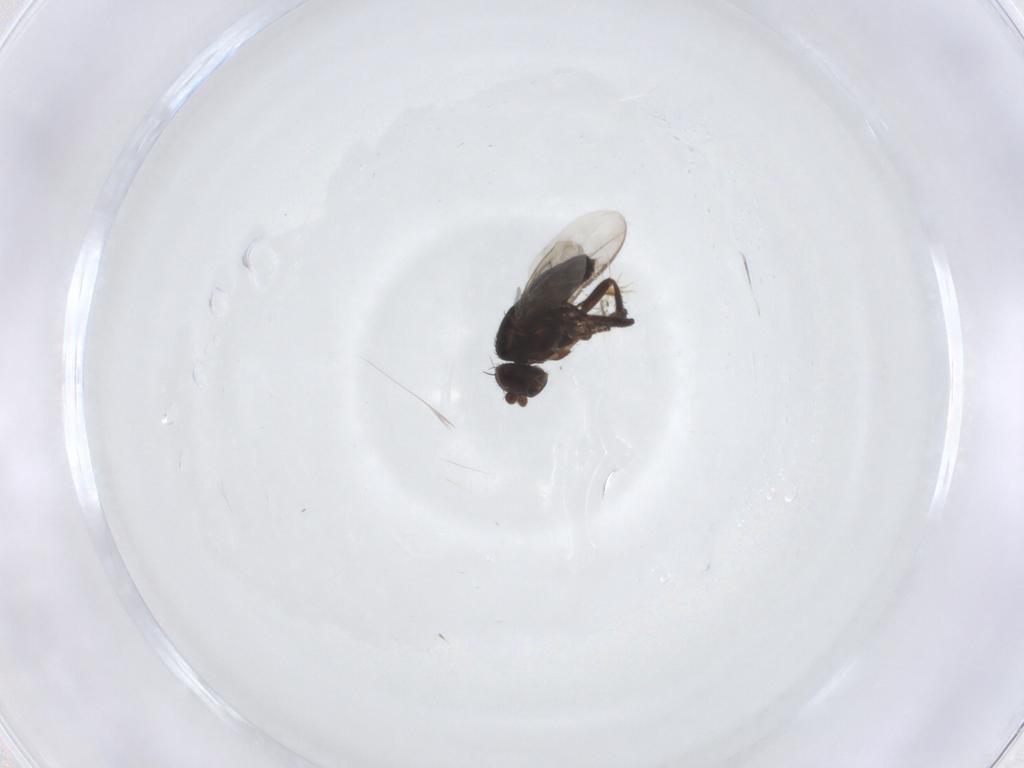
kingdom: Animalia
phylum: Arthropoda
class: Insecta
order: Diptera
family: Sphaeroceridae
